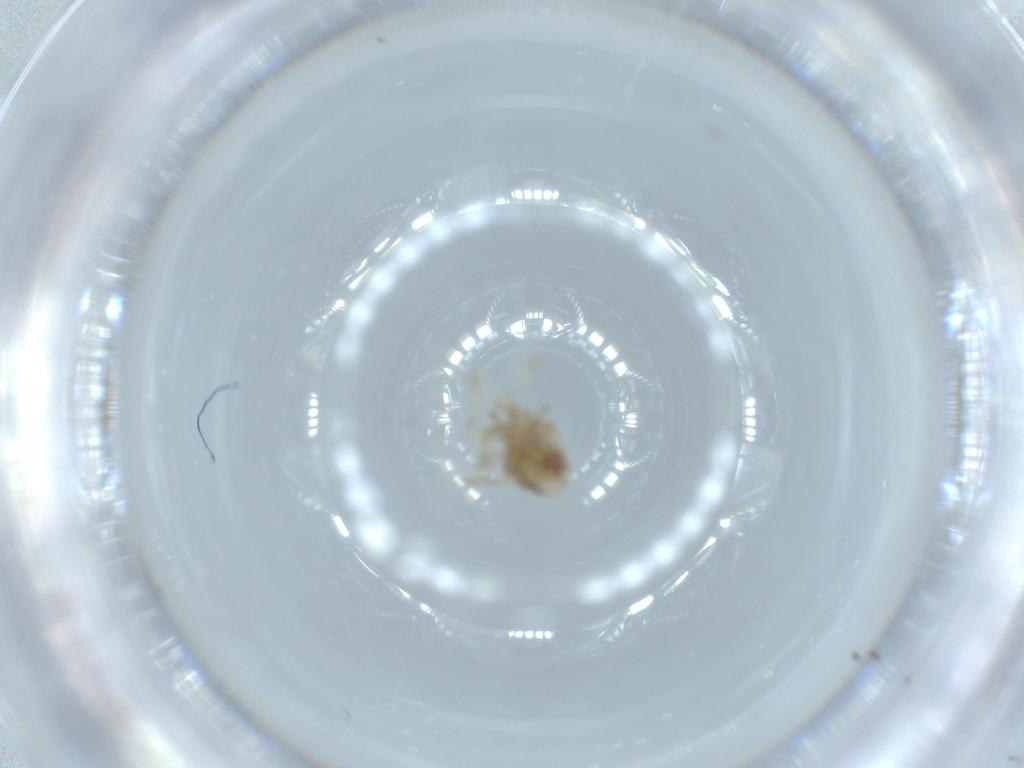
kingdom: Animalia
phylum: Arthropoda
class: Insecta
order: Hemiptera
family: Acanaloniidae
